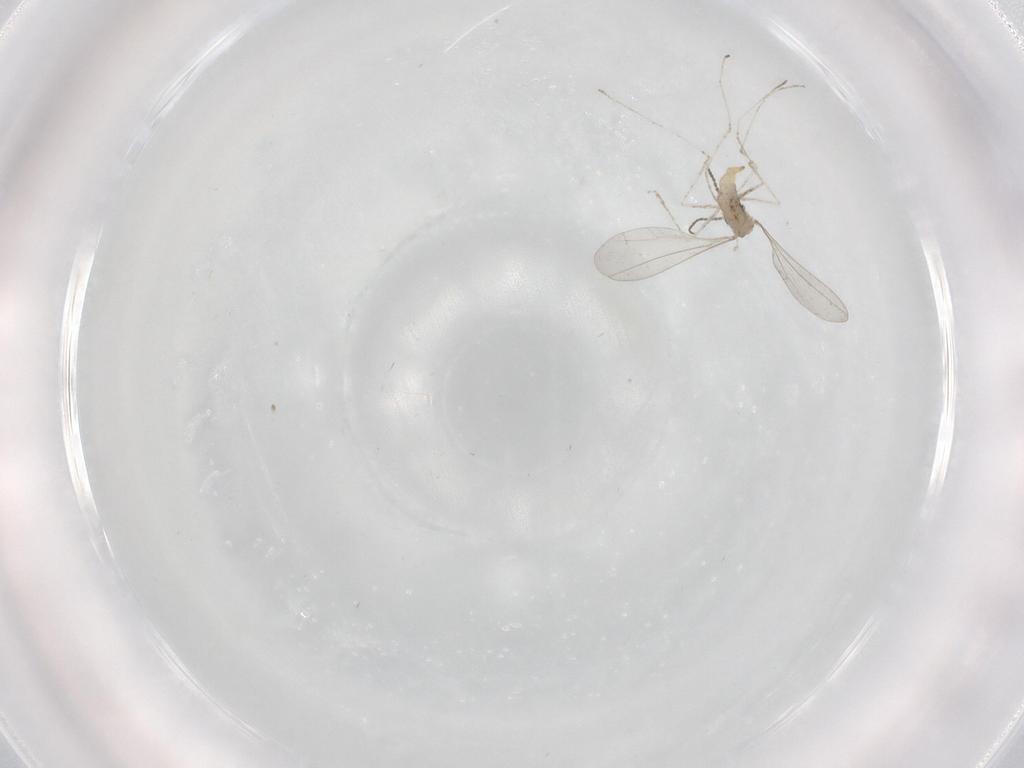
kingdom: Animalia
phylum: Arthropoda
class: Insecta
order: Diptera
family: Cecidomyiidae
